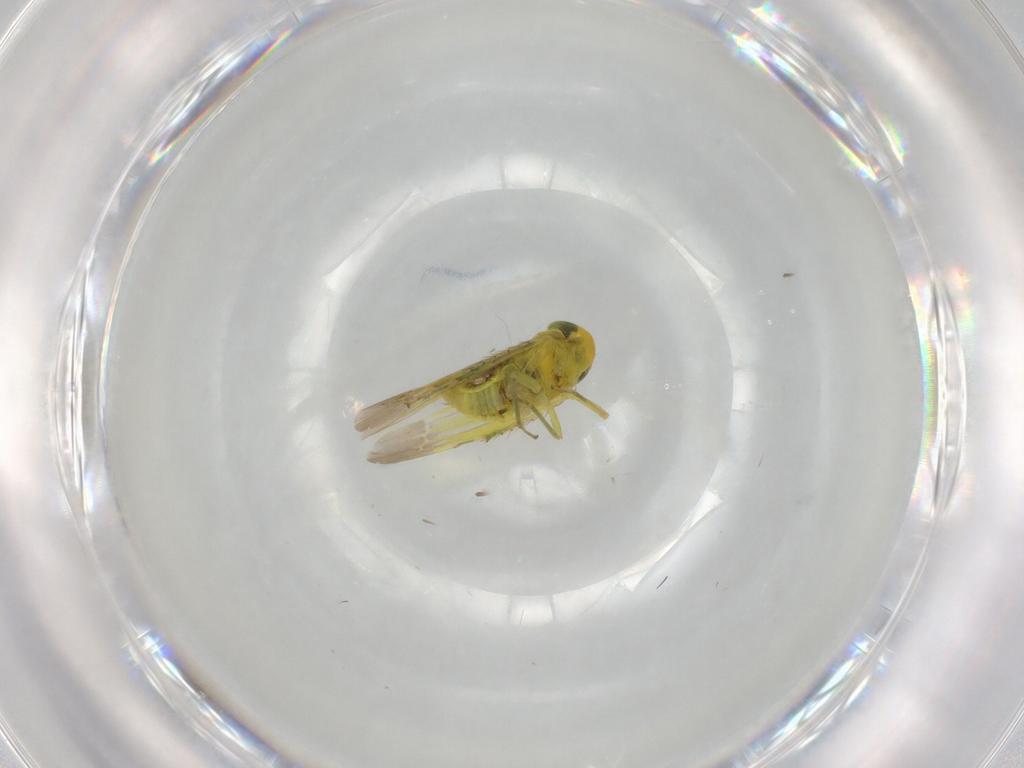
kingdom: Animalia
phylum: Arthropoda
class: Insecta
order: Hemiptera
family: Cicadellidae
